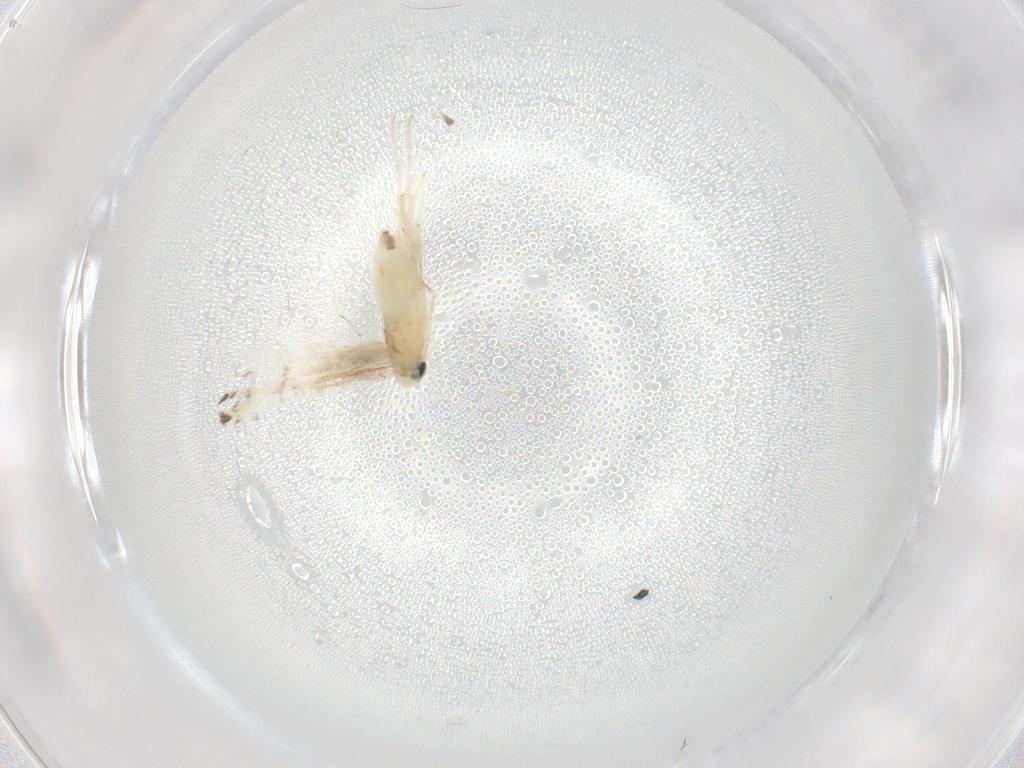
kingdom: Animalia
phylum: Arthropoda
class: Insecta
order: Lepidoptera
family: Gracillariidae
